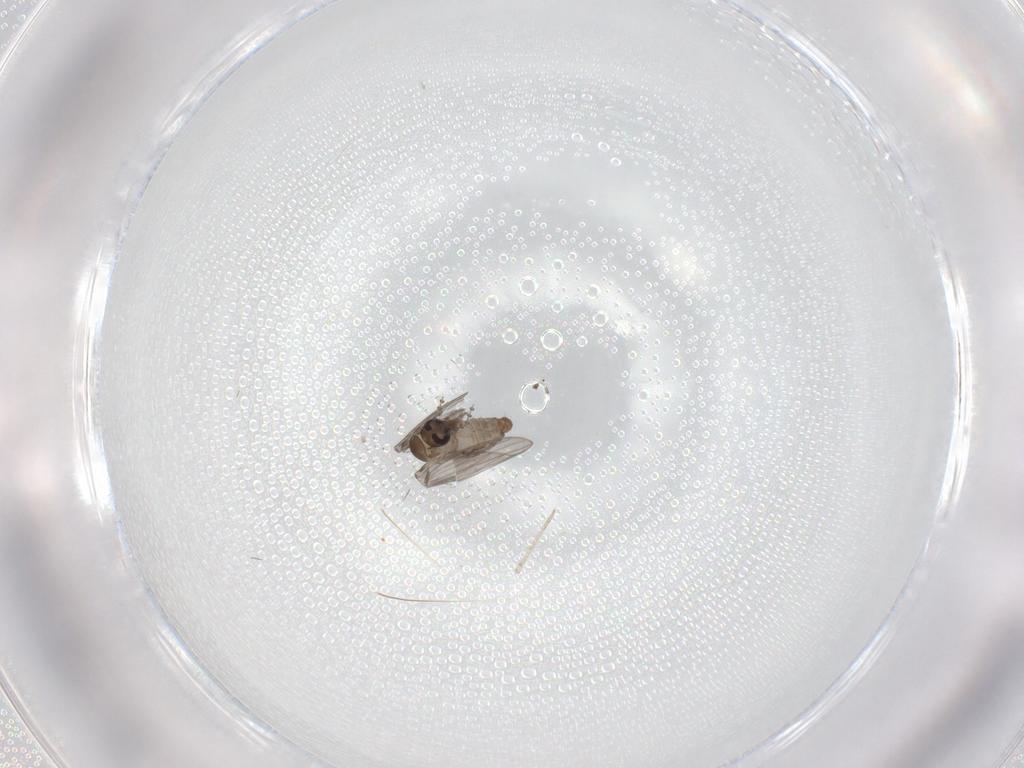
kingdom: Animalia
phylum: Arthropoda
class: Insecta
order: Diptera
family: Psychodidae
